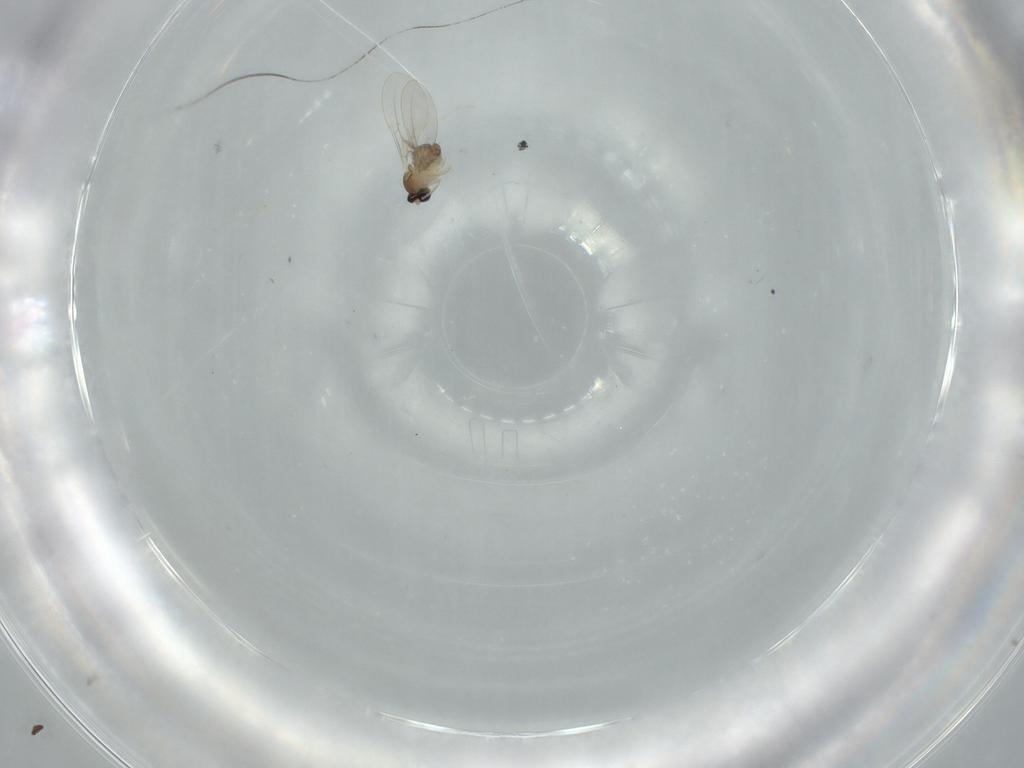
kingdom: Animalia
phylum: Arthropoda
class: Insecta
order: Diptera
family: Cecidomyiidae
